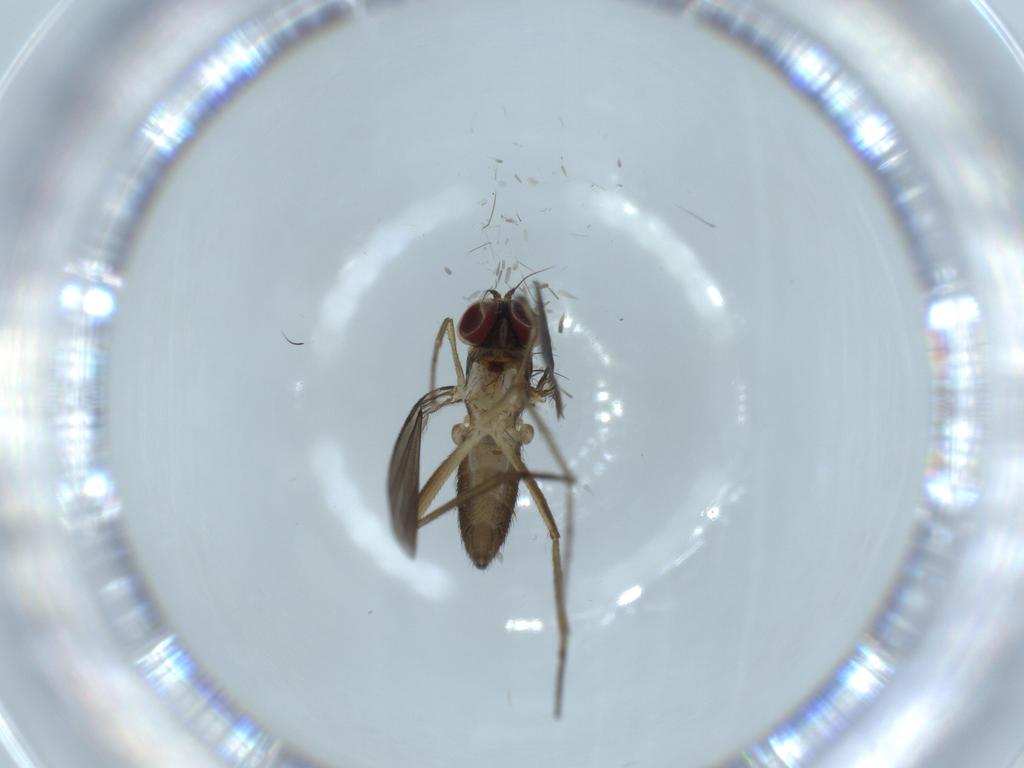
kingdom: Animalia
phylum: Arthropoda
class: Insecta
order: Diptera
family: Dolichopodidae
